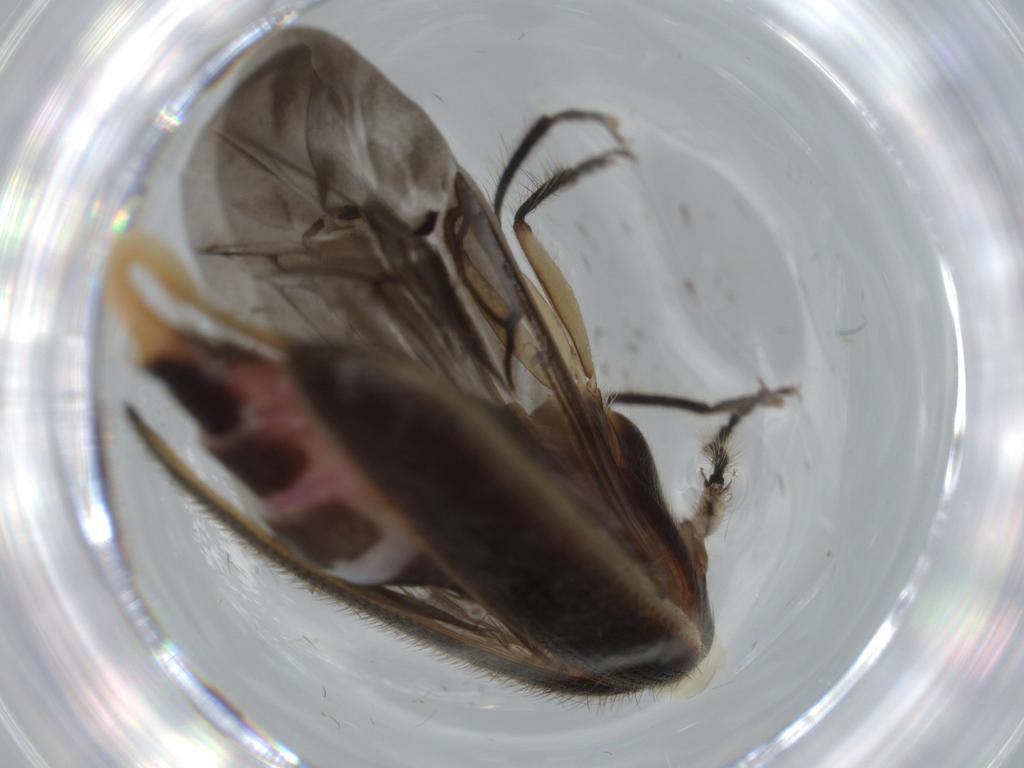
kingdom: Animalia
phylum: Arthropoda
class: Insecta
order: Coleoptera
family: Cleridae
